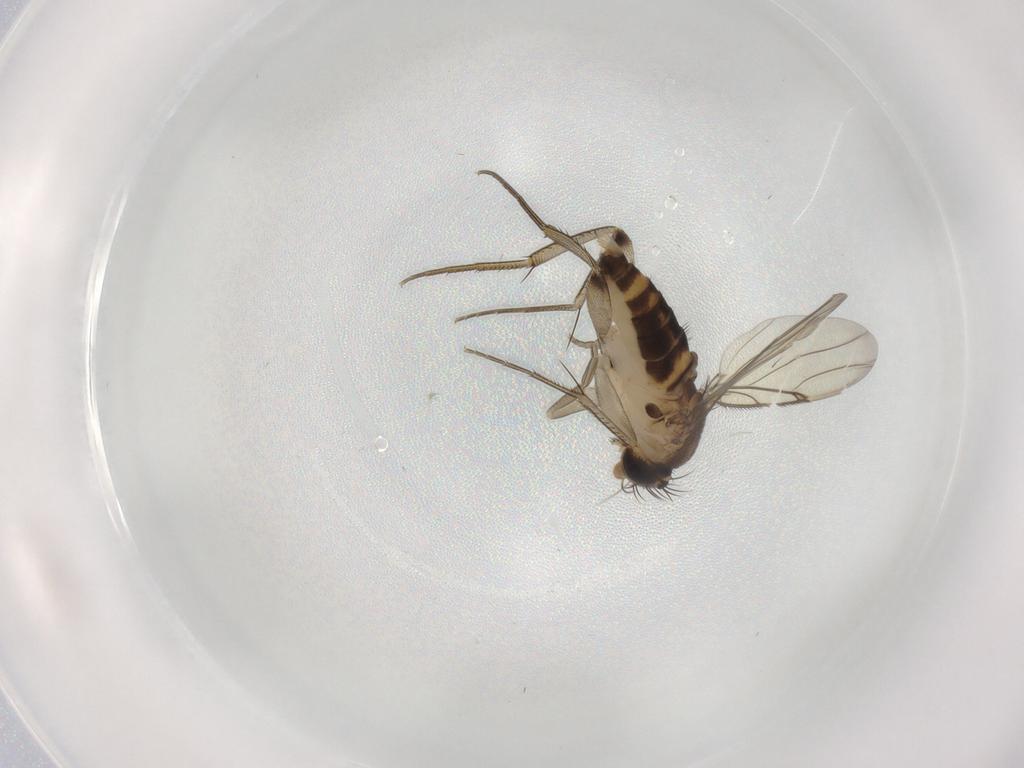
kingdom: Animalia
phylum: Arthropoda
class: Insecta
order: Diptera
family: Phoridae
